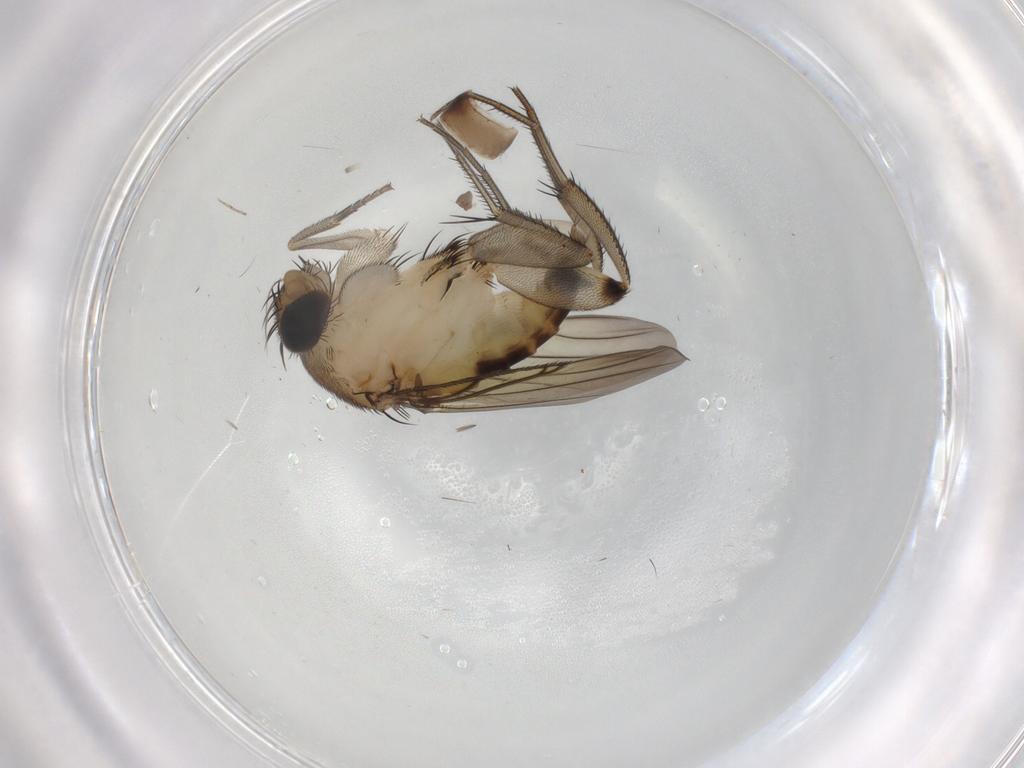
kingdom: Animalia
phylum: Arthropoda
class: Insecta
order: Diptera
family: Phoridae
